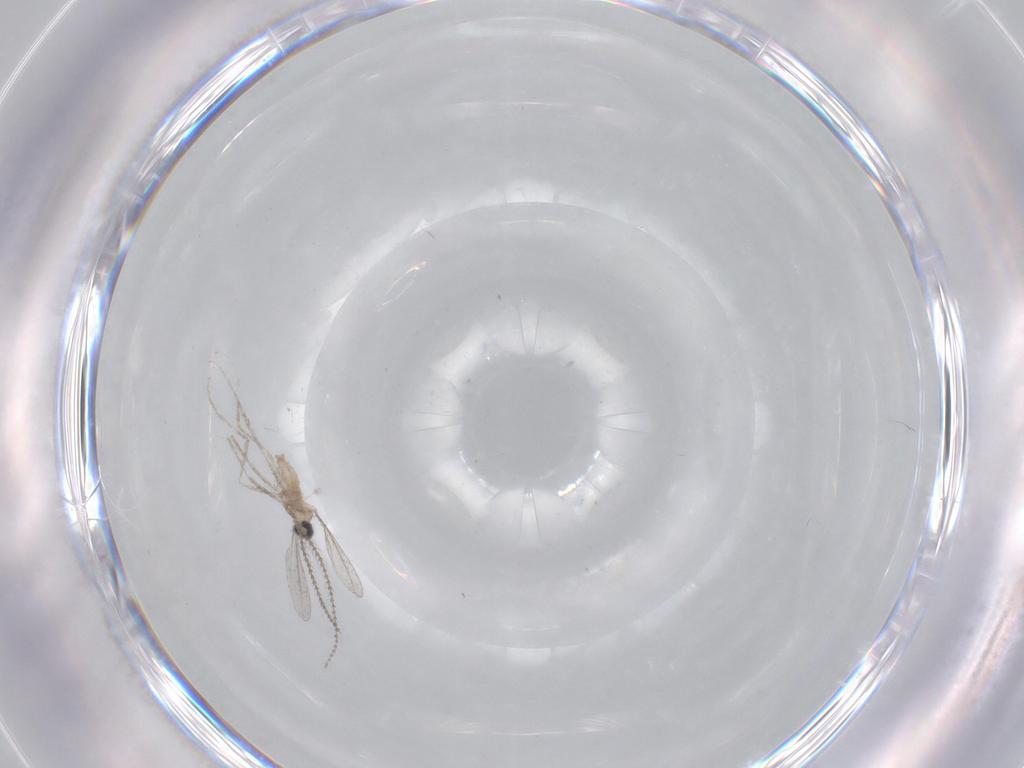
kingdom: Animalia
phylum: Arthropoda
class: Insecta
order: Diptera
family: Cecidomyiidae
